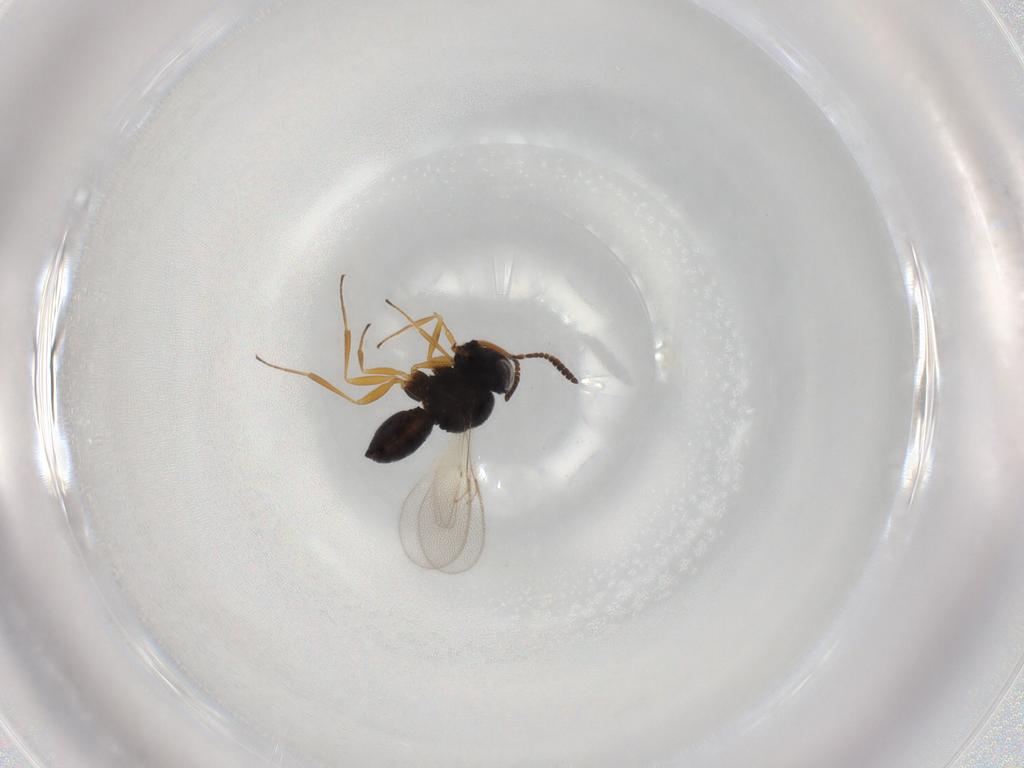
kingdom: Animalia
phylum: Arthropoda
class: Insecta
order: Hymenoptera
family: Scelionidae
